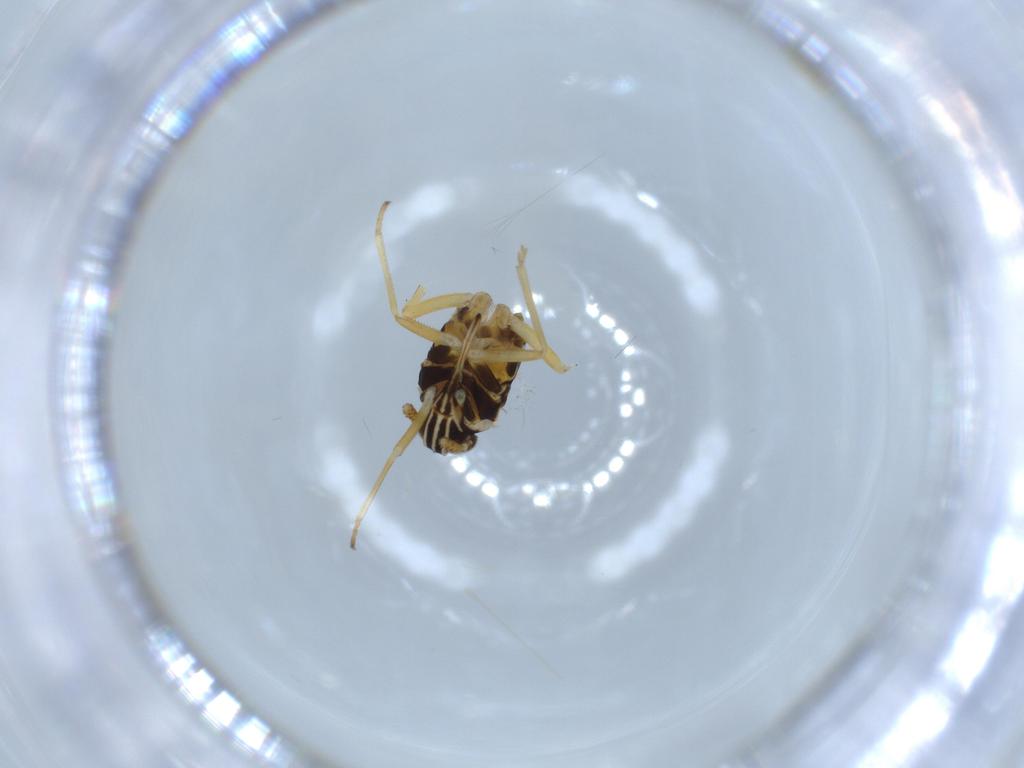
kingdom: Animalia
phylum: Arthropoda
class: Insecta
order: Hemiptera
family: Aleyrodidae
